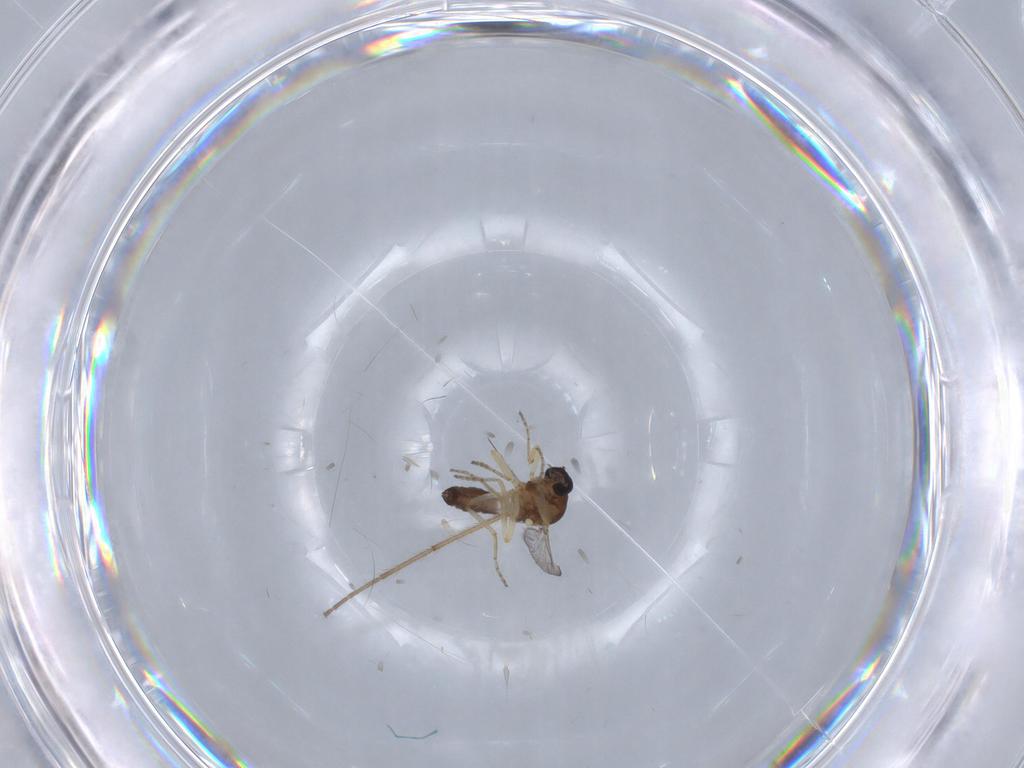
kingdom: Animalia
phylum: Arthropoda
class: Insecta
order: Diptera
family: Ceratopogonidae
